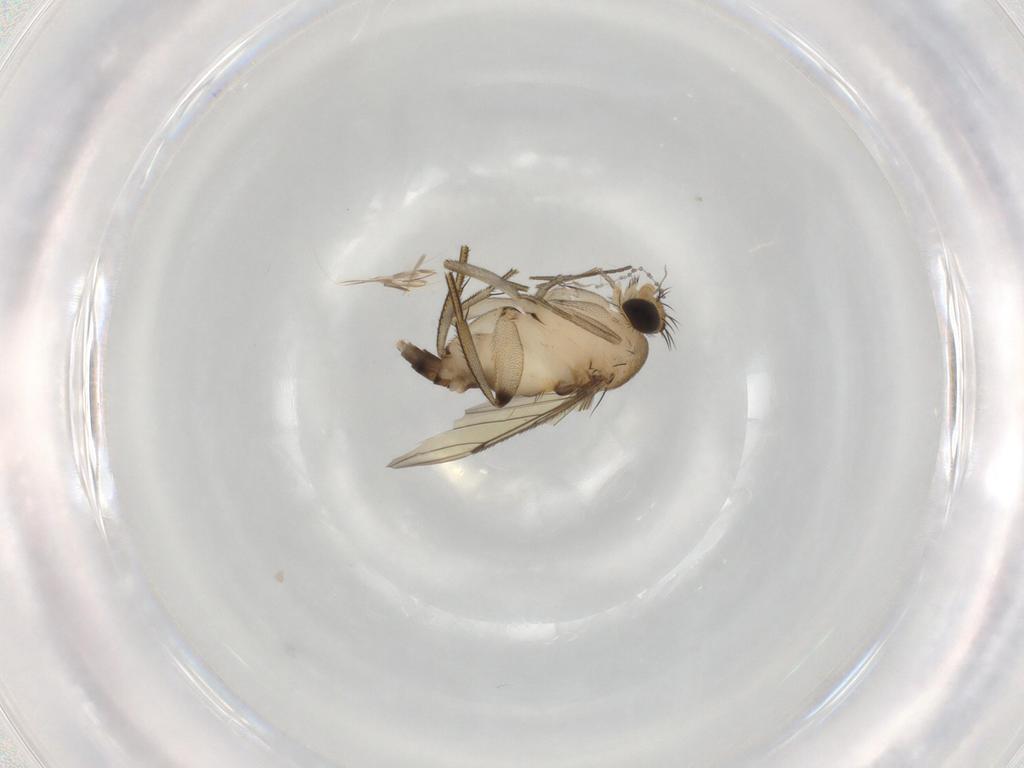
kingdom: Animalia
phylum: Arthropoda
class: Insecta
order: Diptera
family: Phoridae
